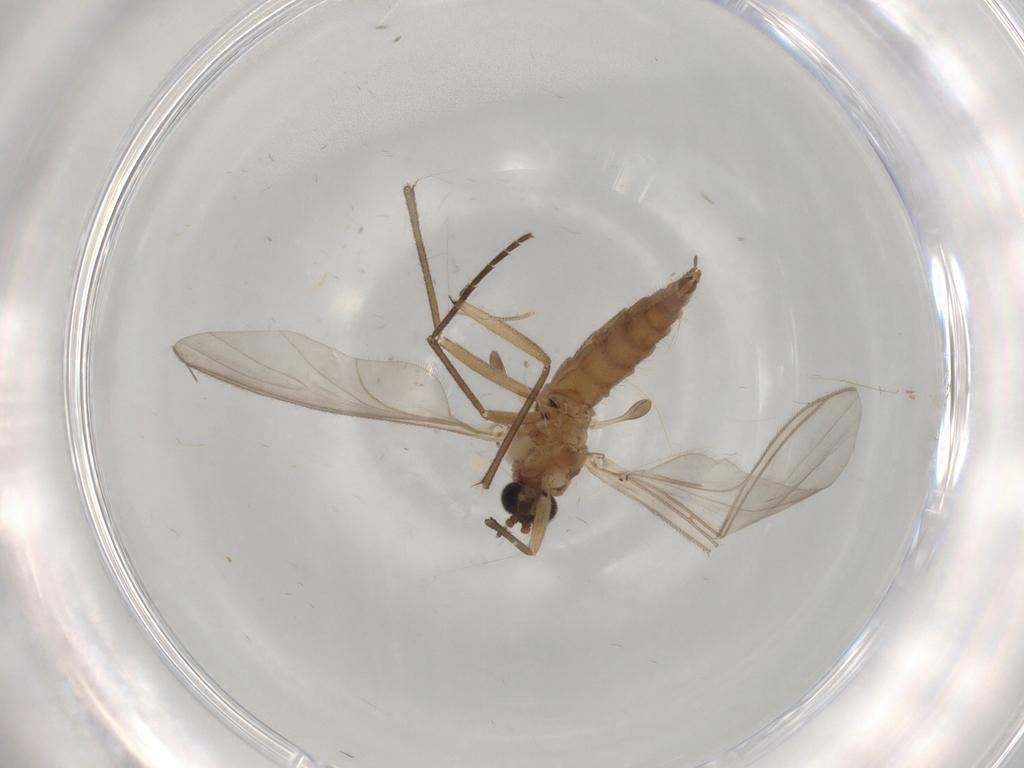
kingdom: Animalia
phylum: Arthropoda
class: Insecta
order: Diptera
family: Sciaridae
